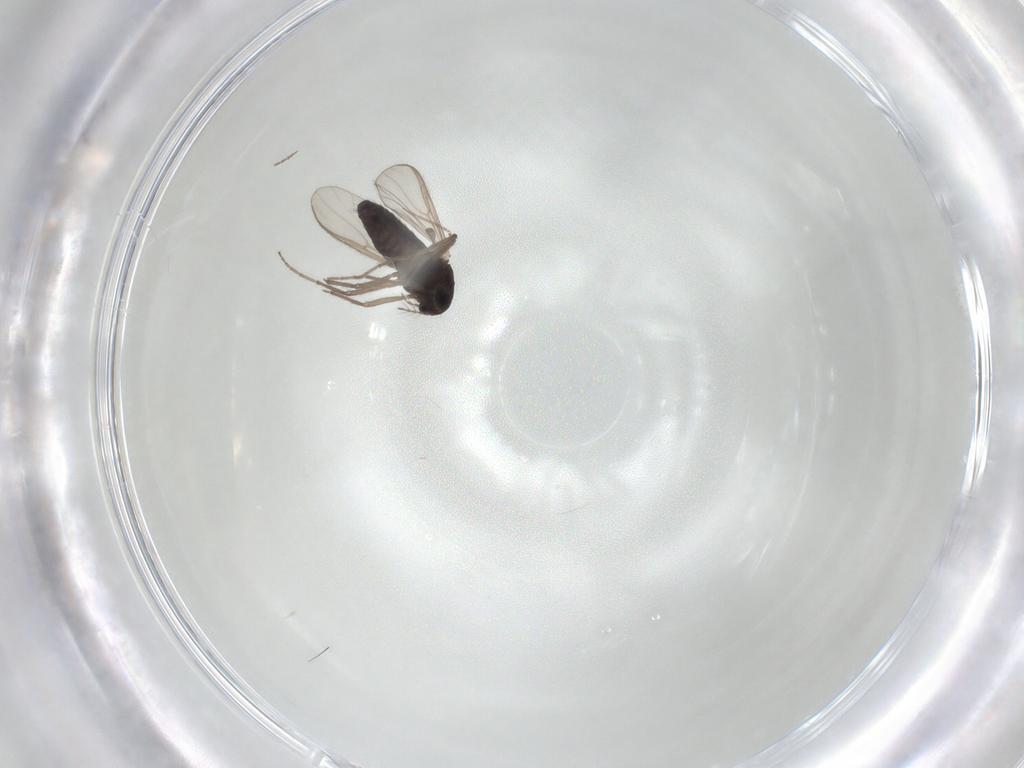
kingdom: Animalia
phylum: Arthropoda
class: Insecta
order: Diptera
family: Chironomidae
